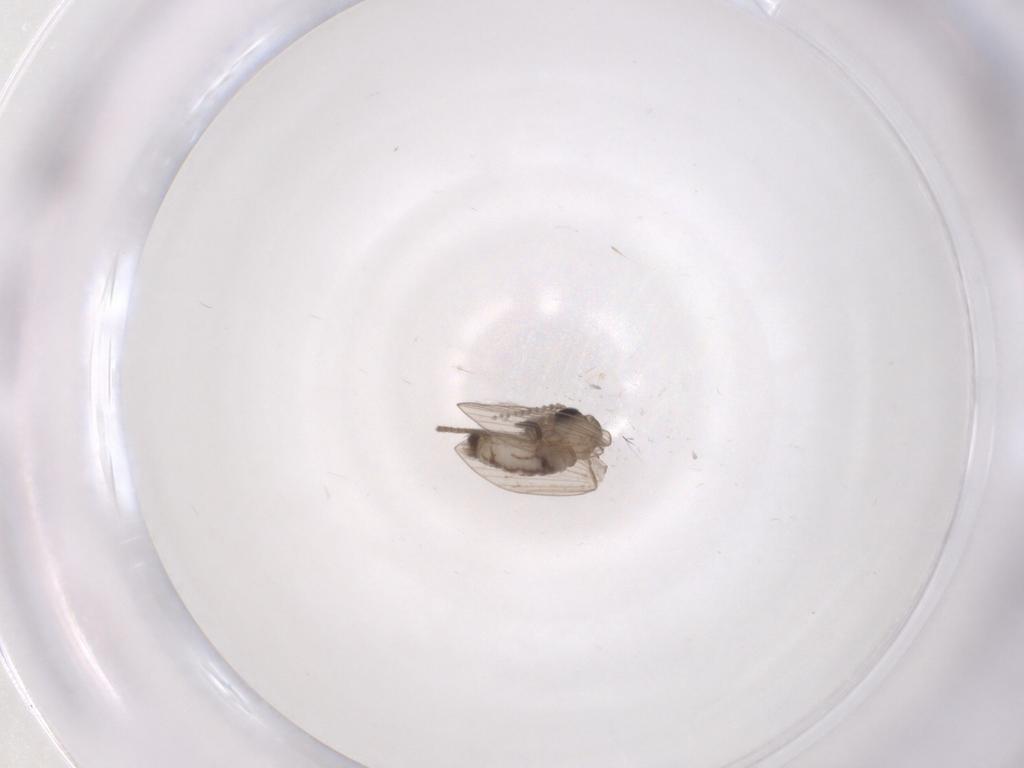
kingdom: Animalia
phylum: Arthropoda
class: Insecta
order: Diptera
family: Psychodidae
